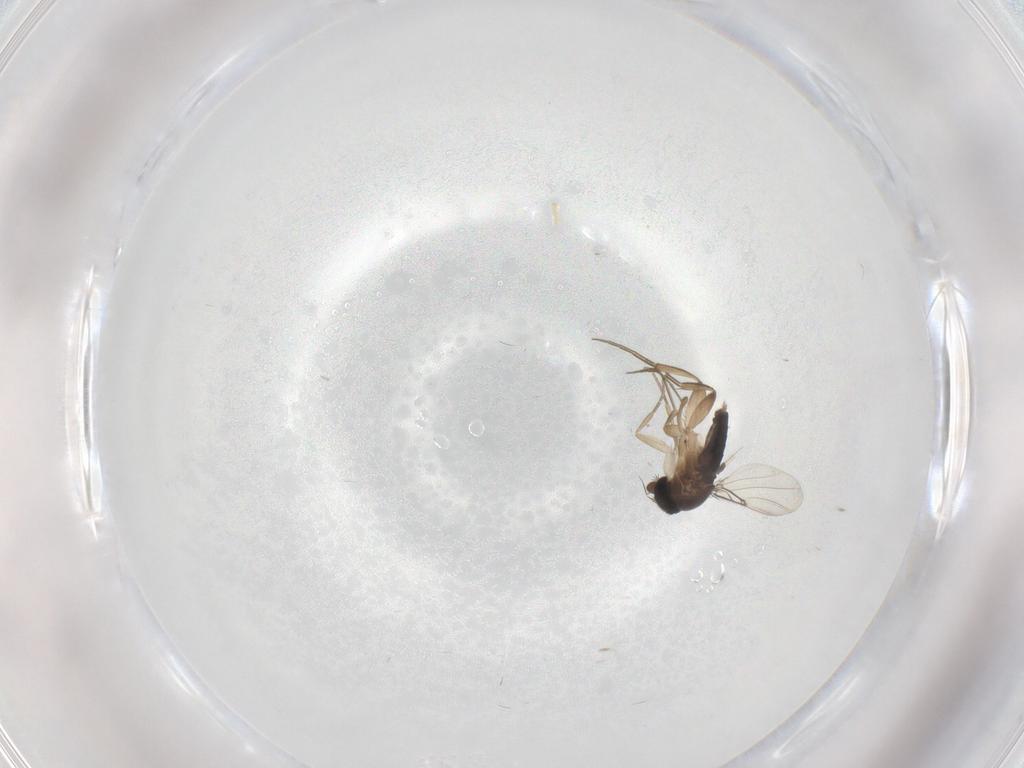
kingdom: Animalia
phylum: Arthropoda
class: Insecta
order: Diptera
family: Phoridae
